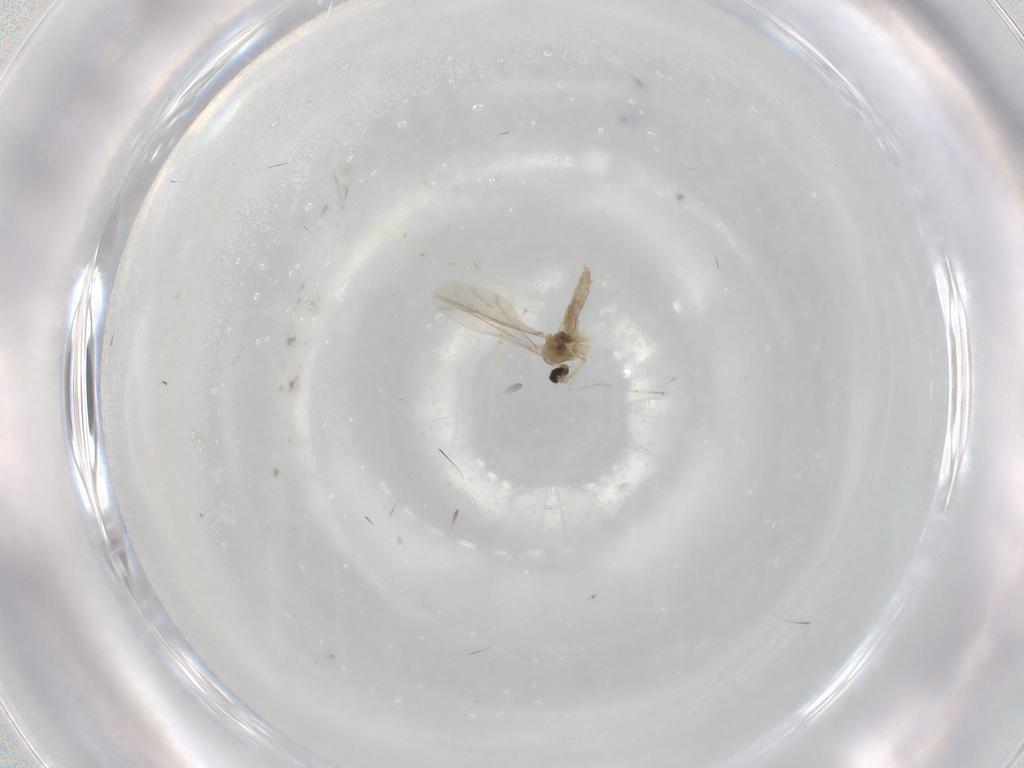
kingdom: Animalia
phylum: Arthropoda
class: Insecta
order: Diptera
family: Cecidomyiidae
